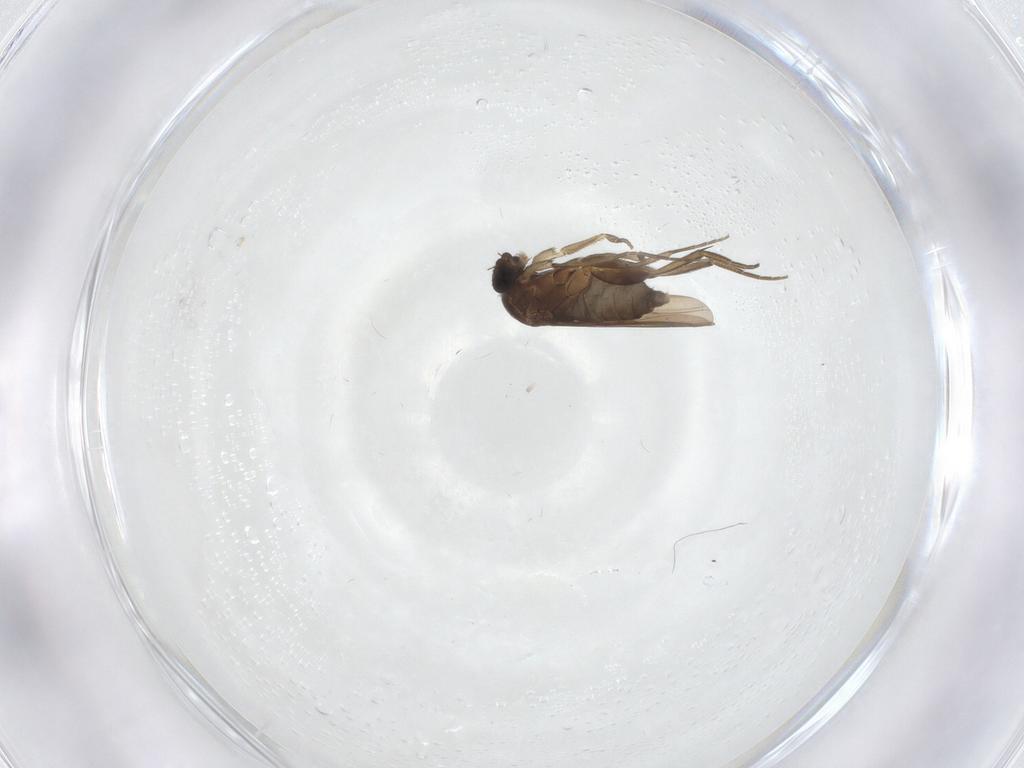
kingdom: Animalia
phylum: Arthropoda
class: Insecta
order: Diptera
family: Phoridae
